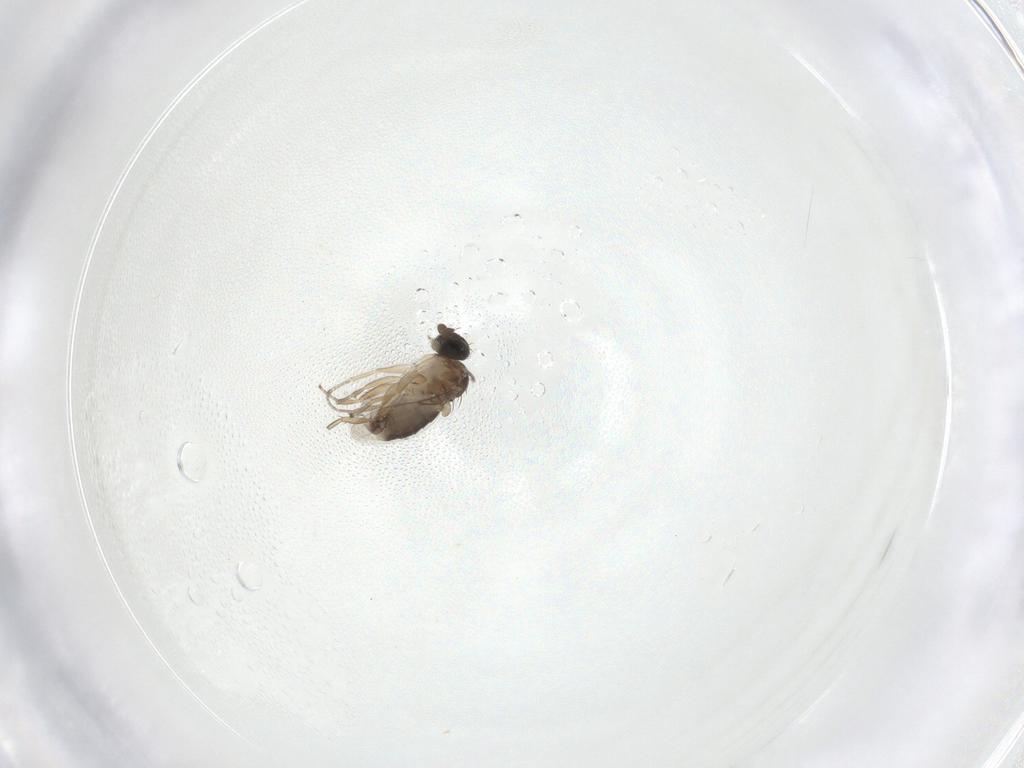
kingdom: Animalia
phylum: Arthropoda
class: Insecta
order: Diptera
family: Phoridae
